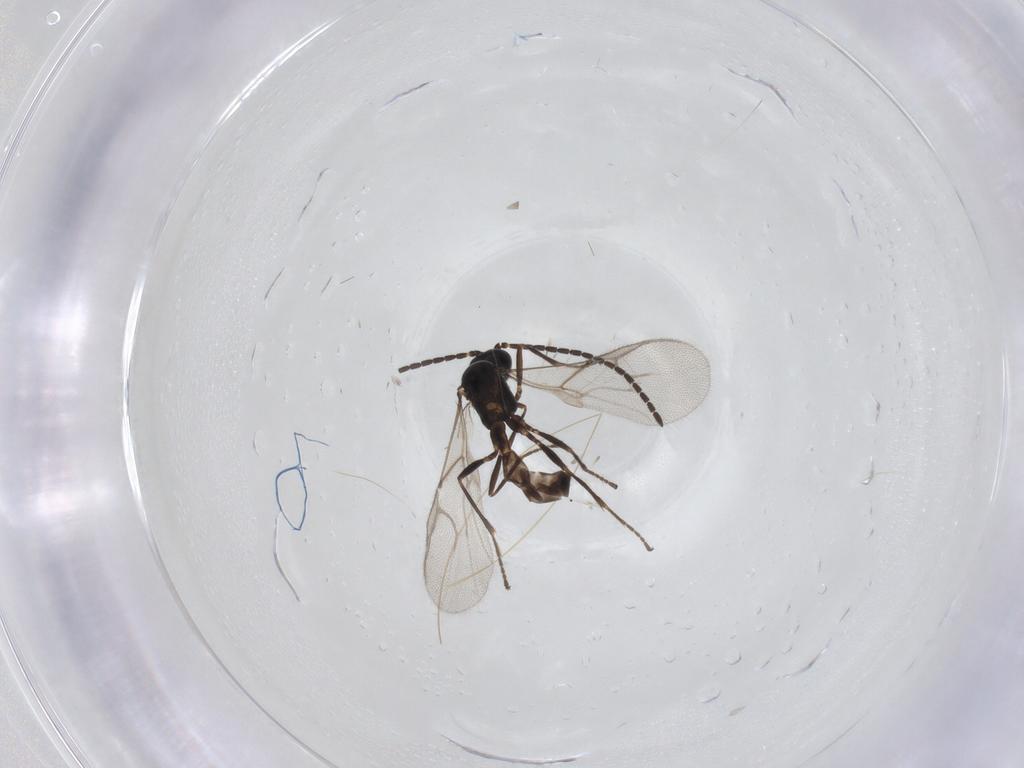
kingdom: Animalia
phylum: Arthropoda
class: Insecta
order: Hymenoptera
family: Braconidae
